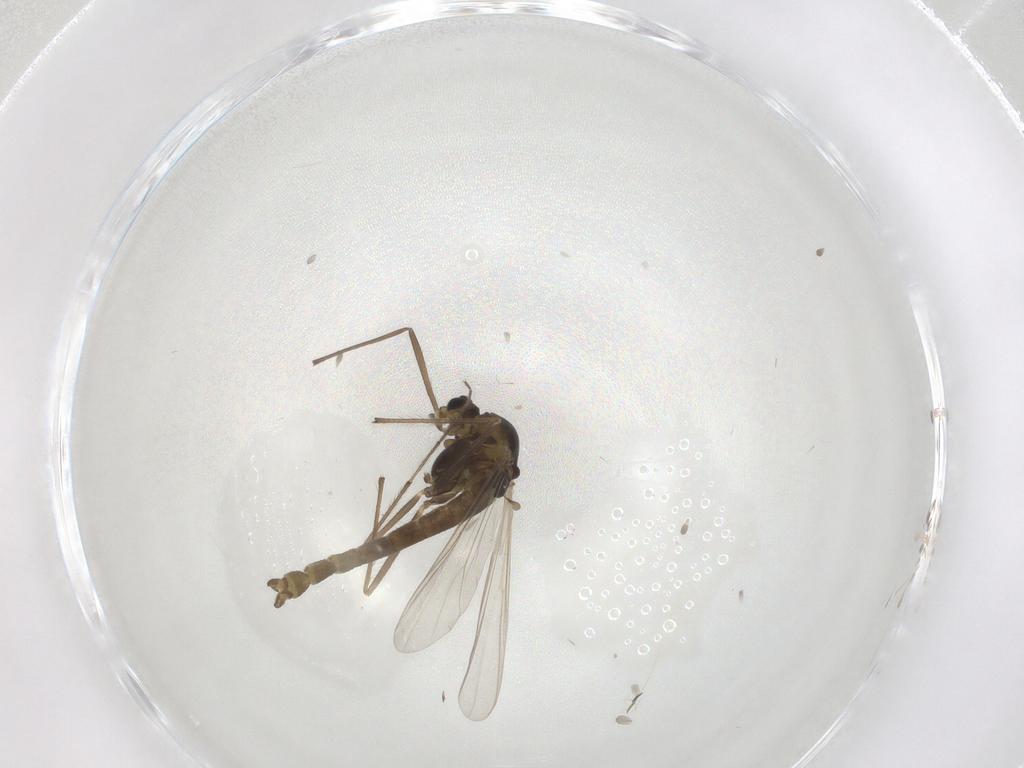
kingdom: Animalia
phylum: Arthropoda
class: Insecta
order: Diptera
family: Chironomidae
